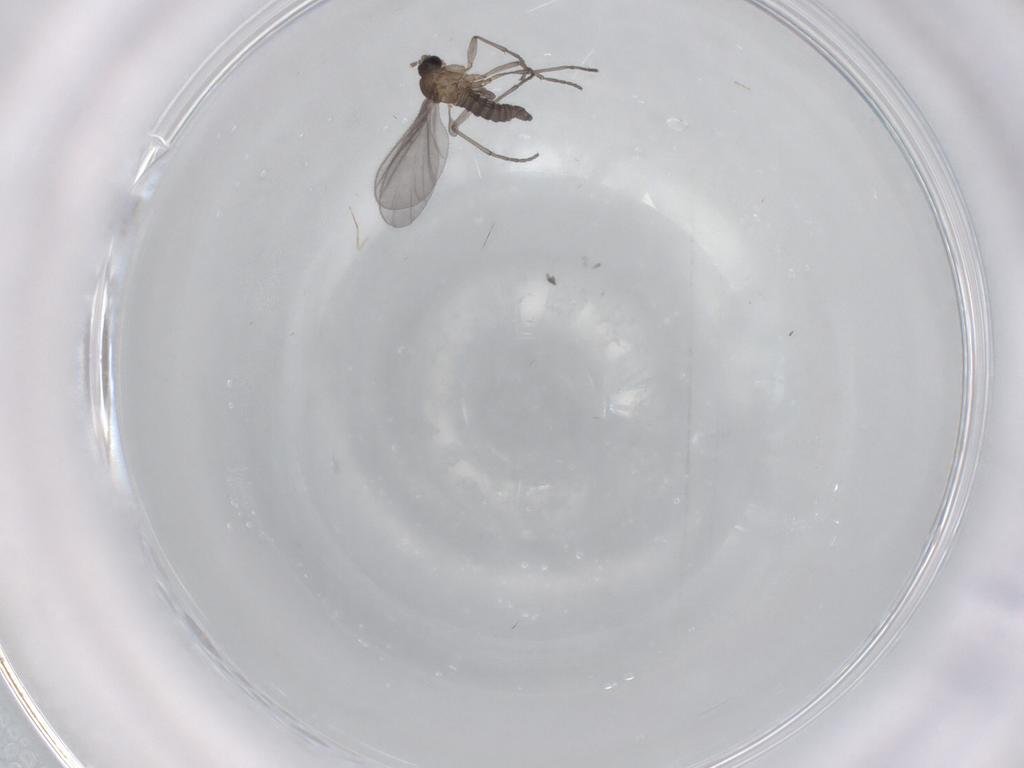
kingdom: Animalia
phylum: Arthropoda
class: Insecta
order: Diptera
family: Sciaridae
